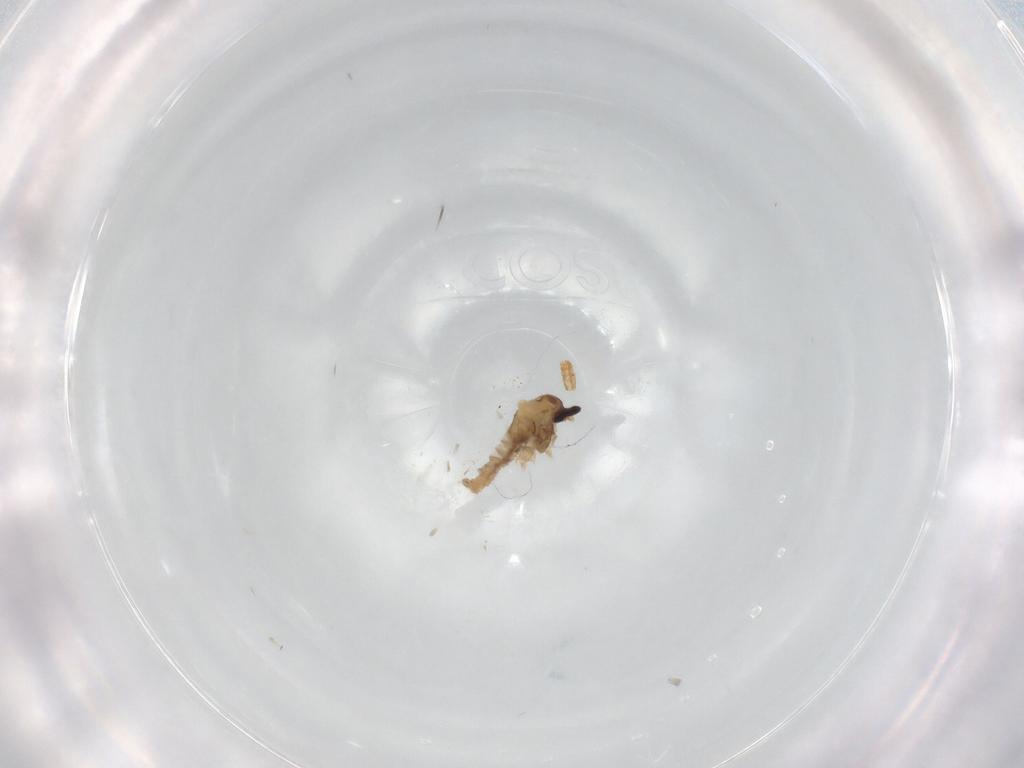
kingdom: Animalia
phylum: Arthropoda
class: Insecta
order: Diptera
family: Cecidomyiidae
